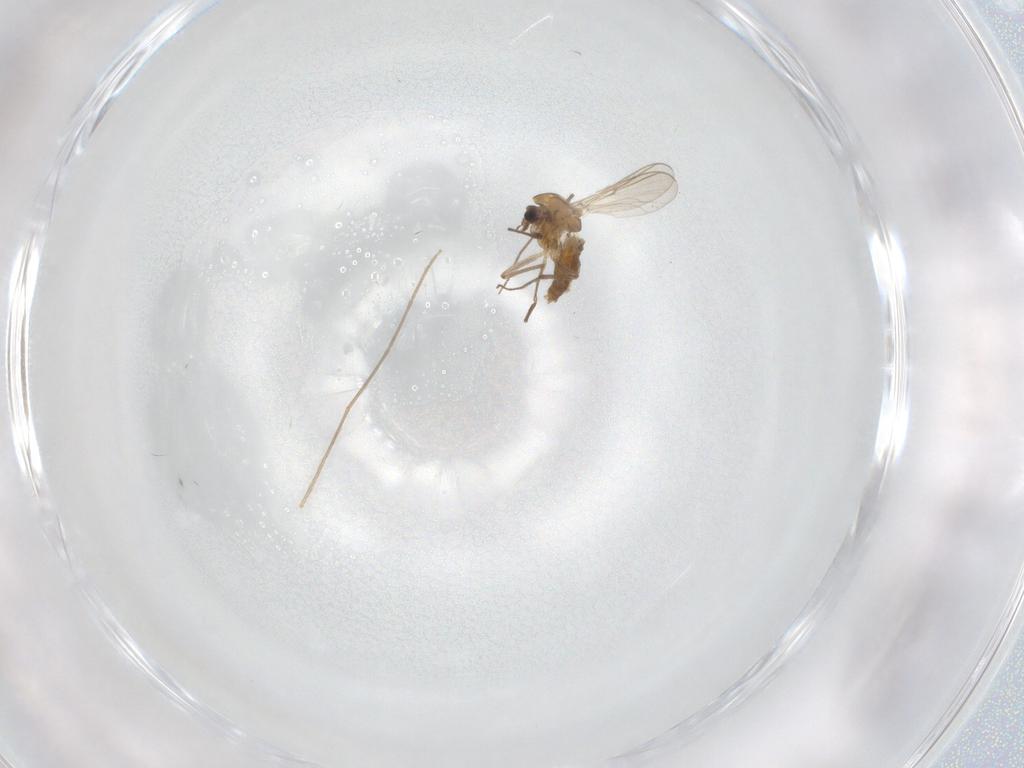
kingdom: Animalia
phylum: Arthropoda
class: Insecta
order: Diptera
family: Chironomidae
